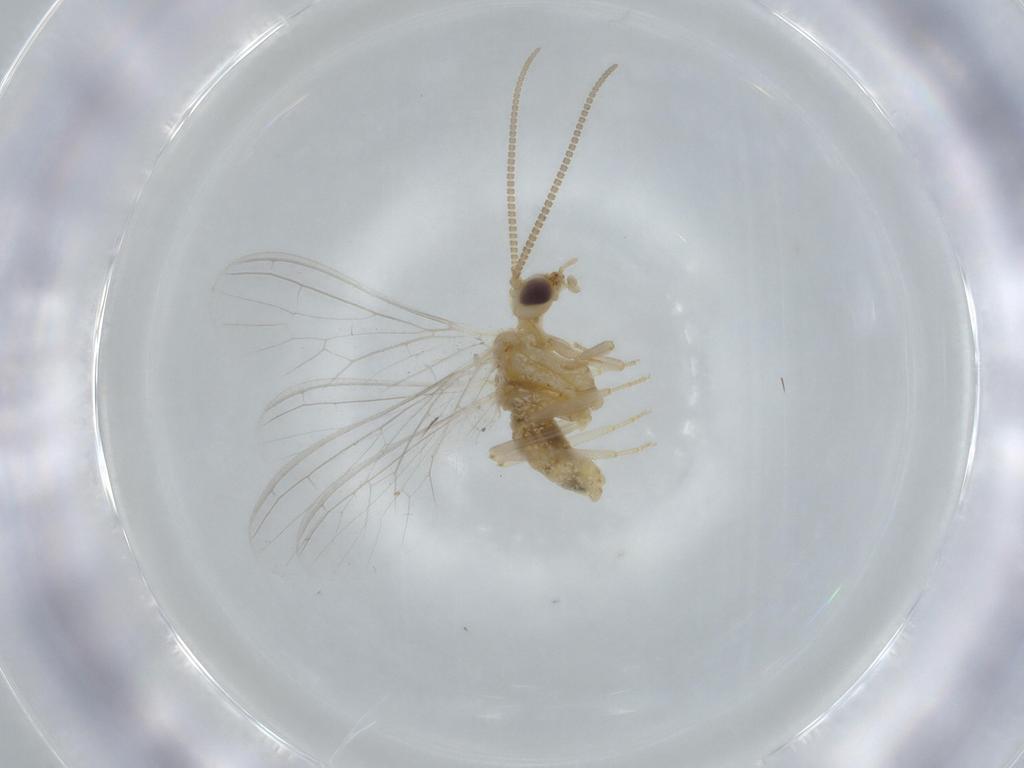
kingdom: Animalia
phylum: Arthropoda
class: Insecta
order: Neuroptera
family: Coniopterygidae
